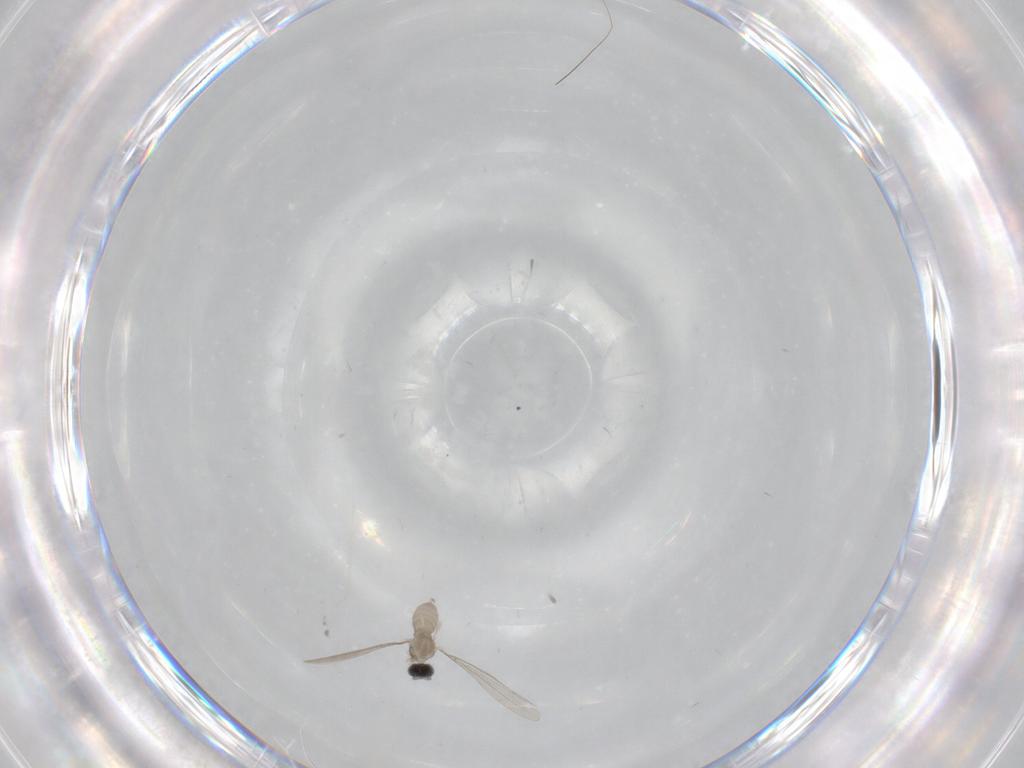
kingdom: Animalia
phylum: Arthropoda
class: Insecta
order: Diptera
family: Cecidomyiidae
